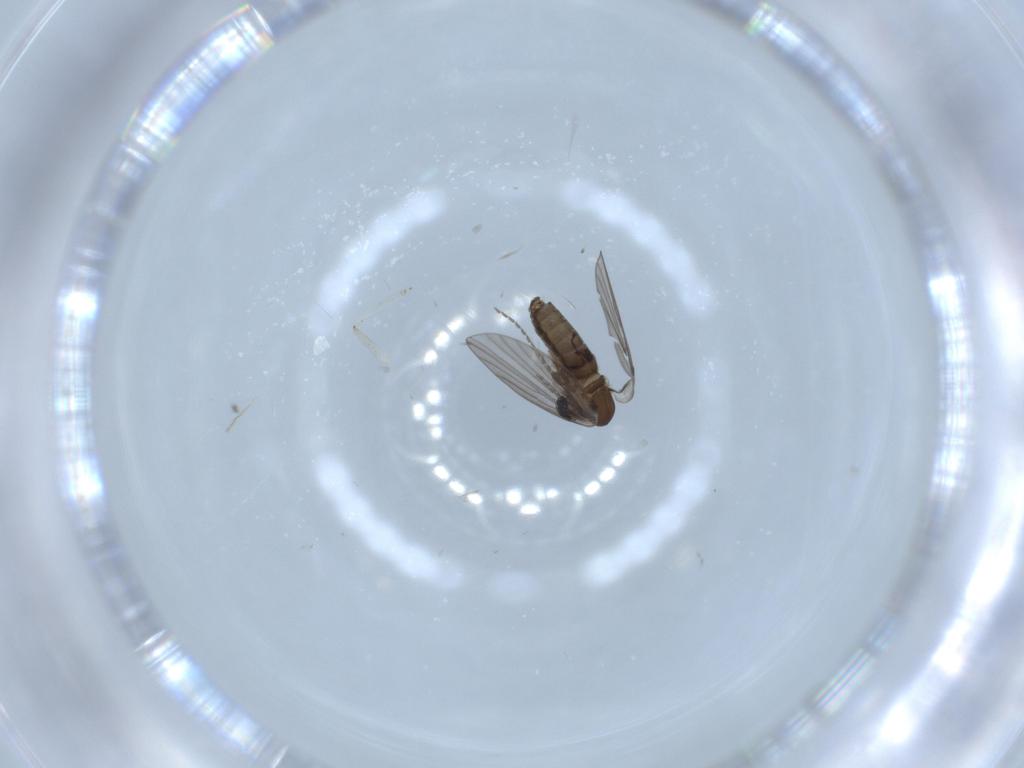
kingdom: Animalia
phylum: Arthropoda
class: Insecta
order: Diptera
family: Psychodidae
